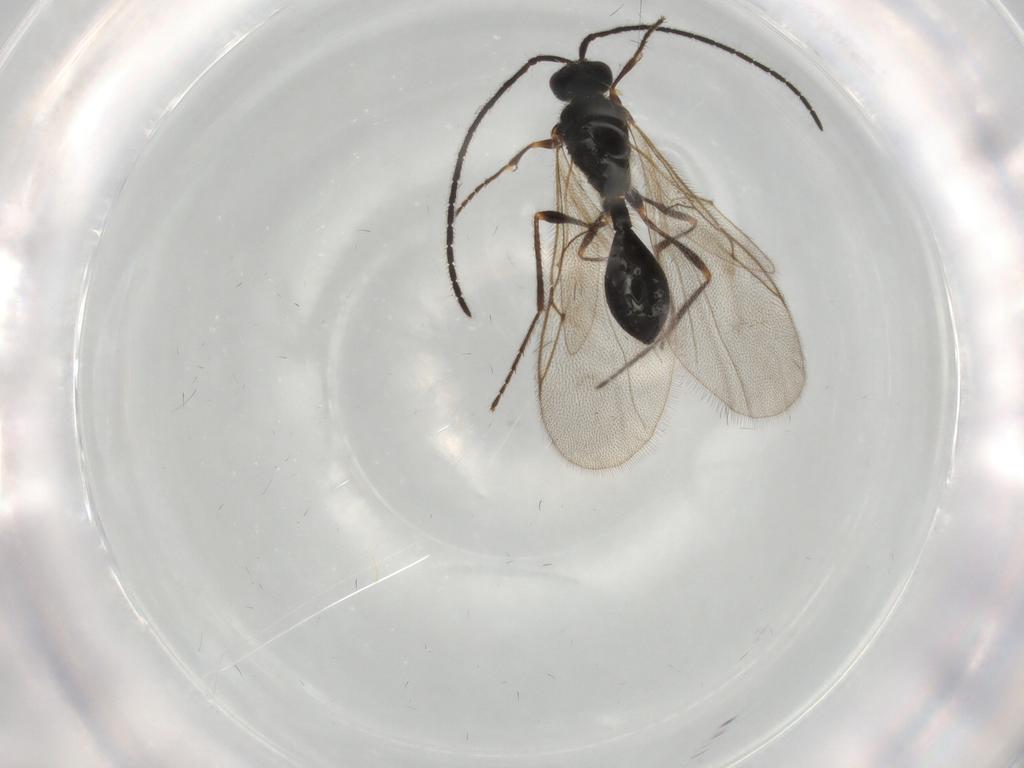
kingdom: Animalia
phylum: Arthropoda
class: Insecta
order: Hymenoptera
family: Diapriidae
